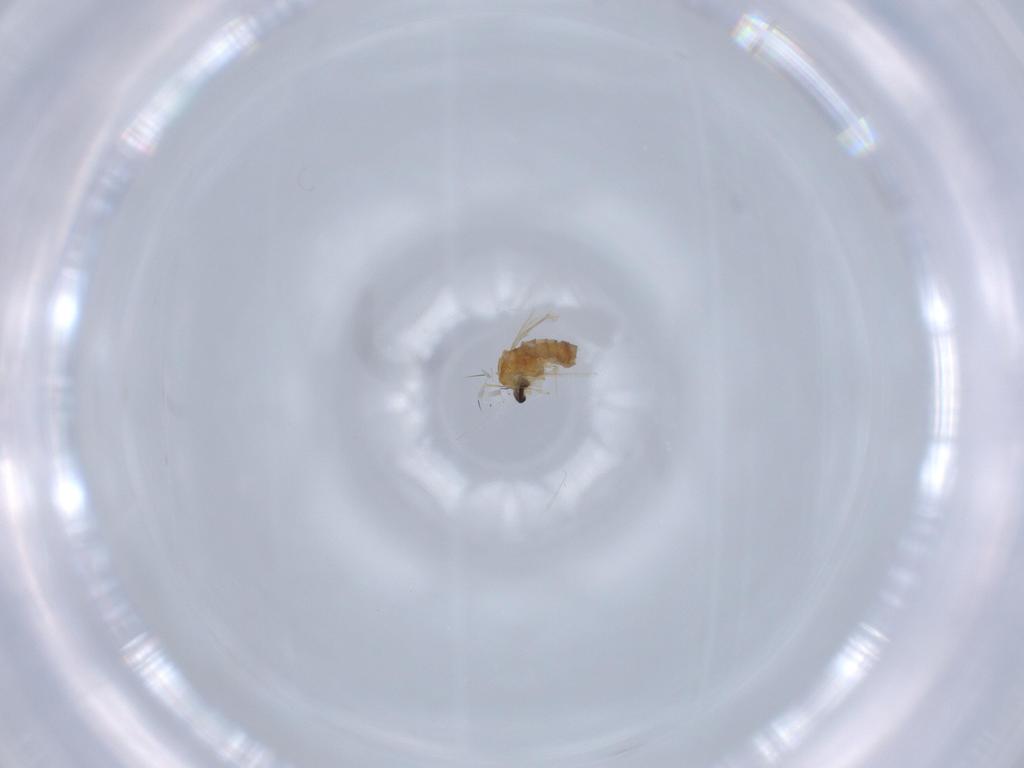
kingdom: Animalia
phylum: Arthropoda
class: Insecta
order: Diptera
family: Cecidomyiidae
